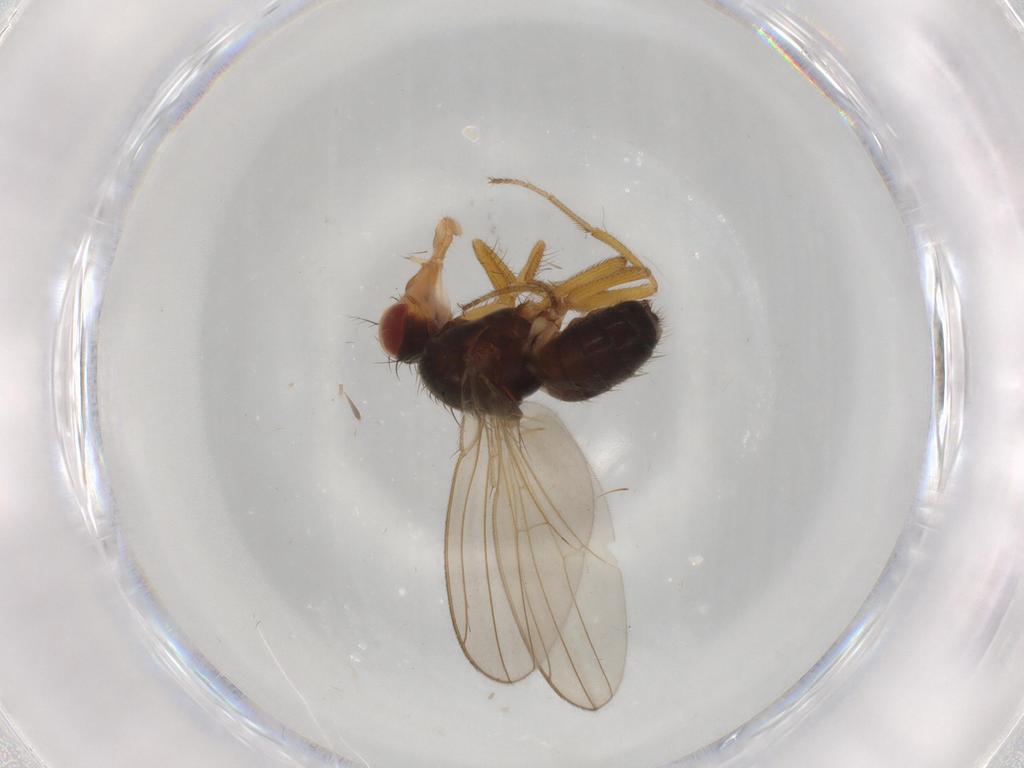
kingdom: Animalia
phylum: Arthropoda
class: Insecta
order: Diptera
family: Drosophilidae
